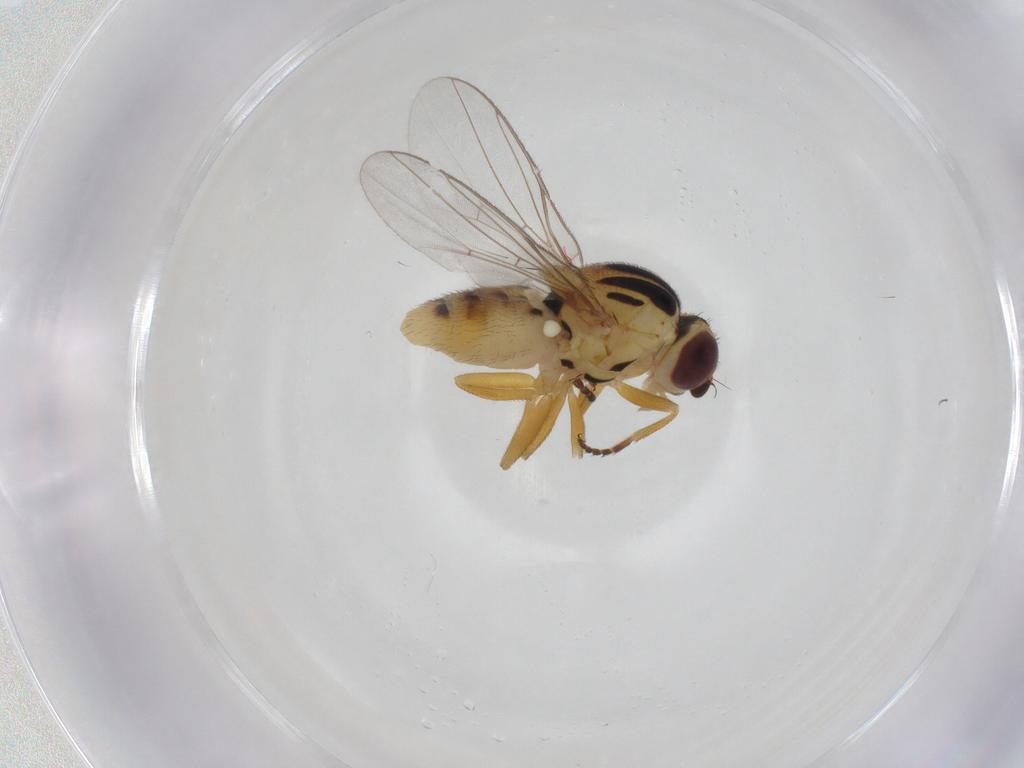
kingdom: Animalia
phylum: Arthropoda
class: Insecta
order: Diptera
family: Chloropidae
